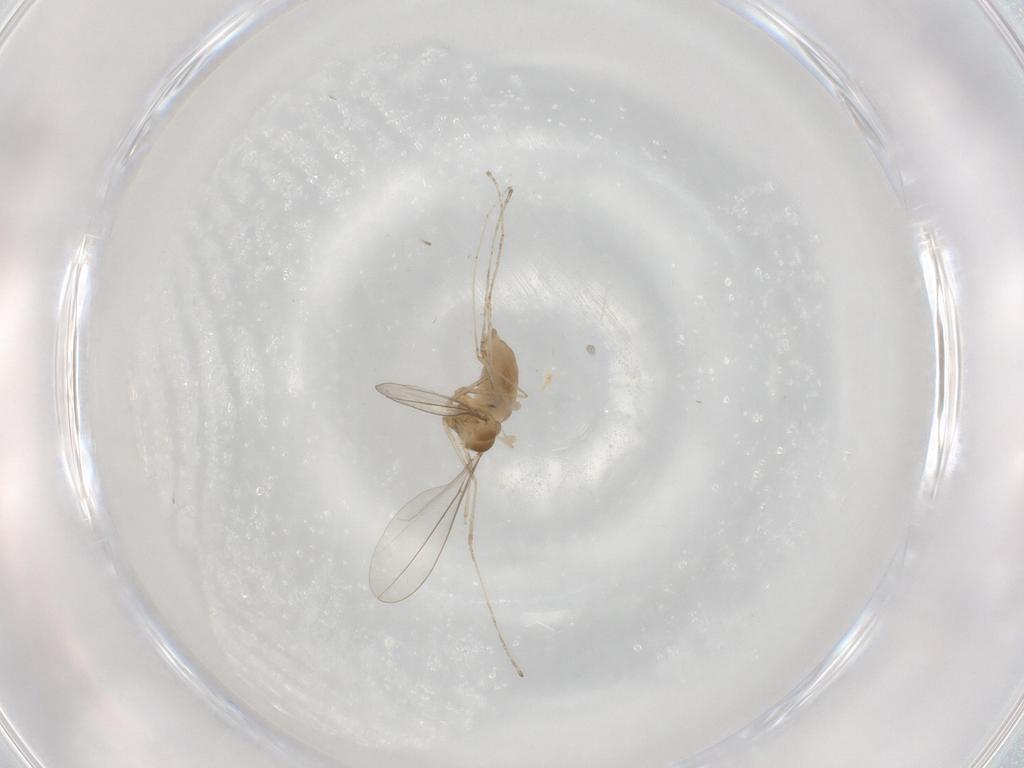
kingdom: Animalia
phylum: Arthropoda
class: Insecta
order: Diptera
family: Cecidomyiidae
